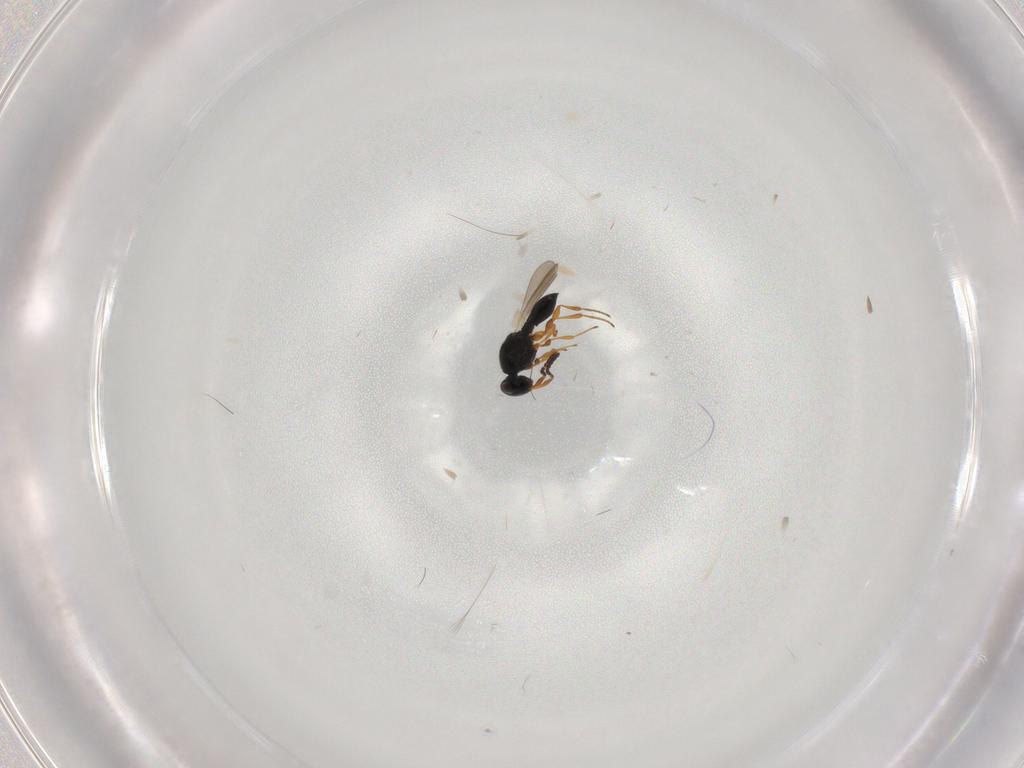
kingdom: Animalia
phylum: Arthropoda
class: Insecta
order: Hymenoptera
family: Platygastridae
